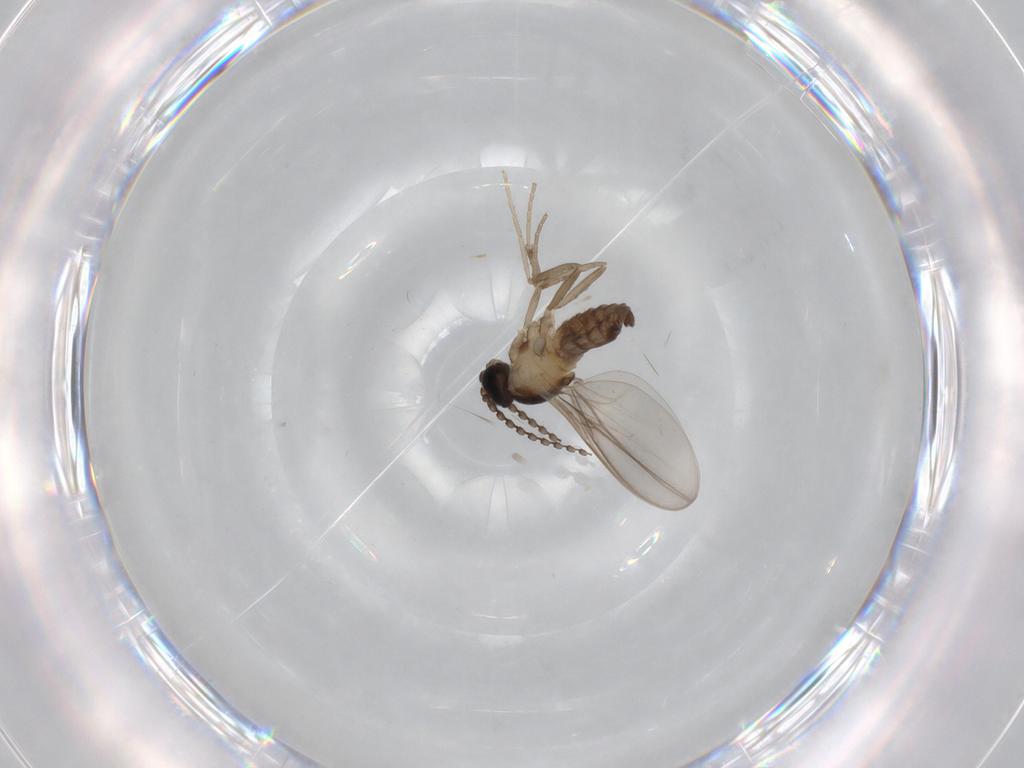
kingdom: Animalia
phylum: Arthropoda
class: Insecta
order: Diptera
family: Cecidomyiidae
